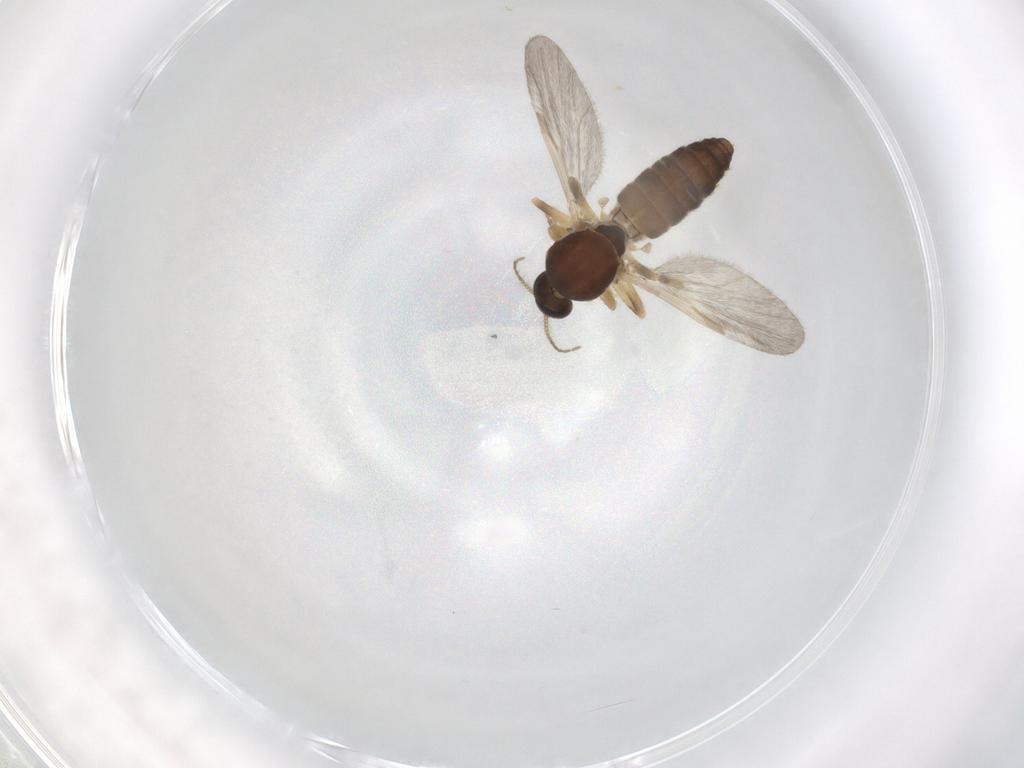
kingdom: Animalia
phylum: Arthropoda
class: Insecta
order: Diptera
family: Ceratopogonidae
